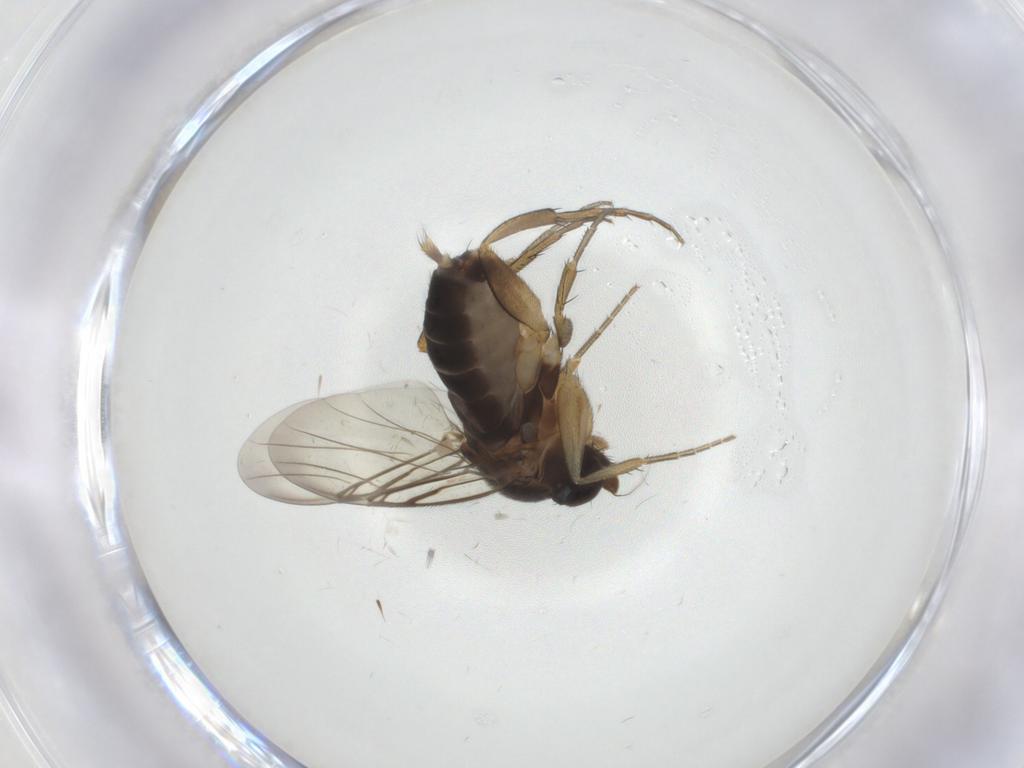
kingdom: Animalia
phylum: Arthropoda
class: Insecta
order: Diptera
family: Phoridae
